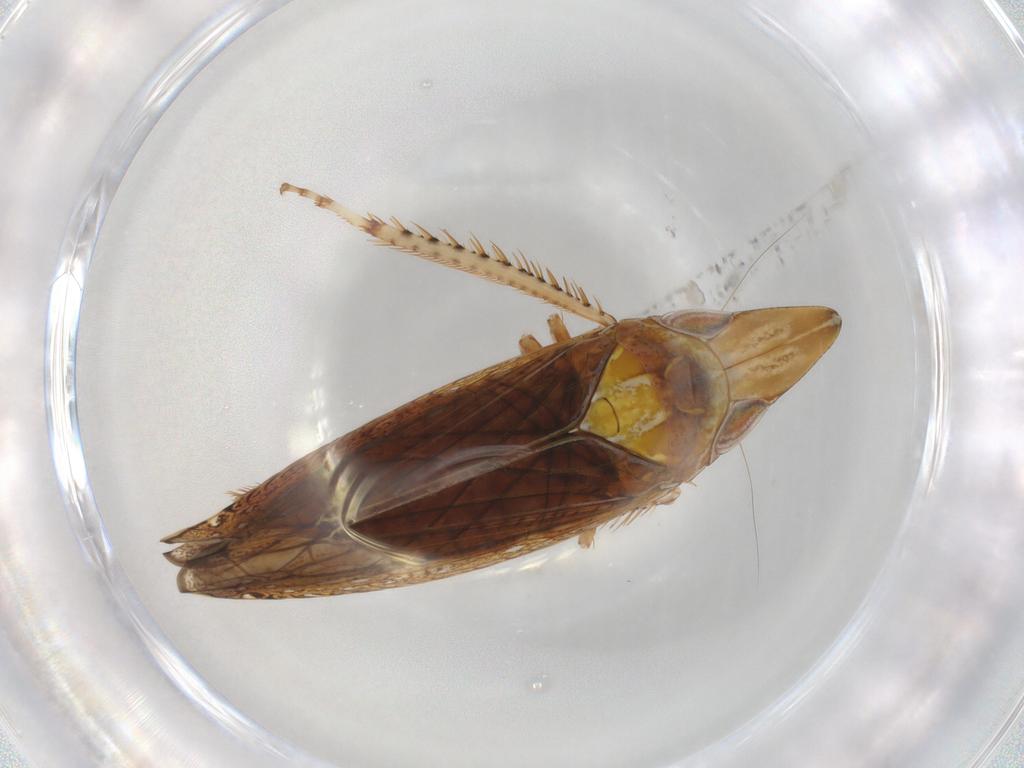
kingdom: Animalia
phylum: Arthropoda
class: Insecta
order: Hemiptera
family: Cicadellidae
